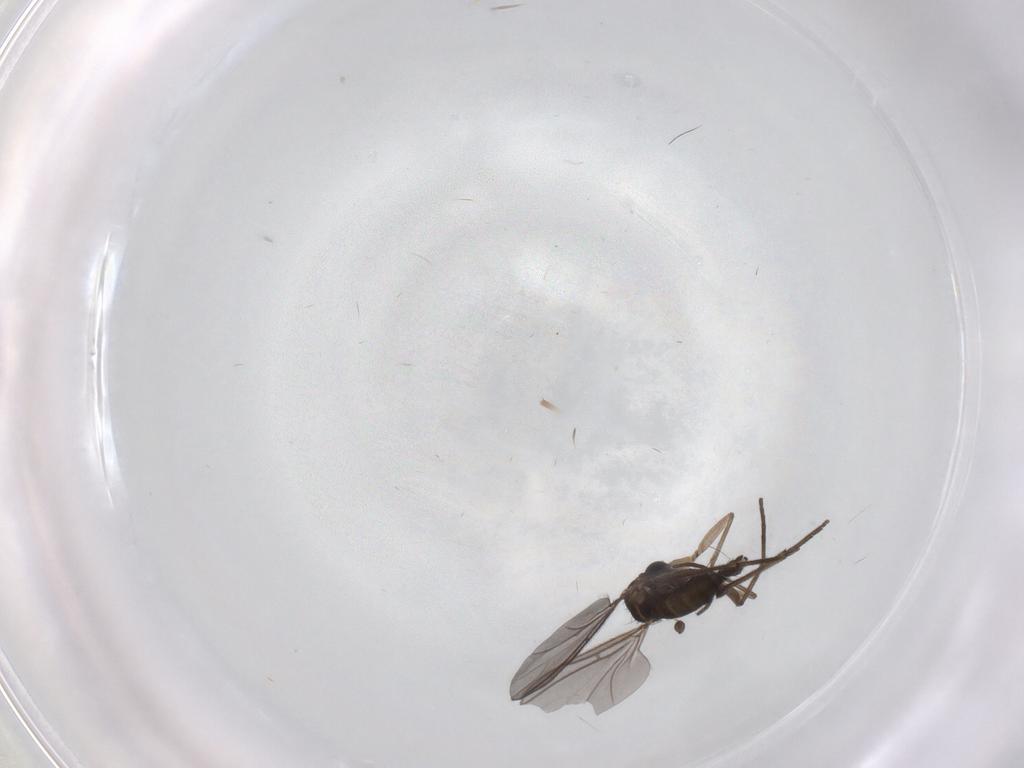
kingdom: Animalia
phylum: Arthropoda
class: Insecta
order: Diptera
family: Sciaridae
